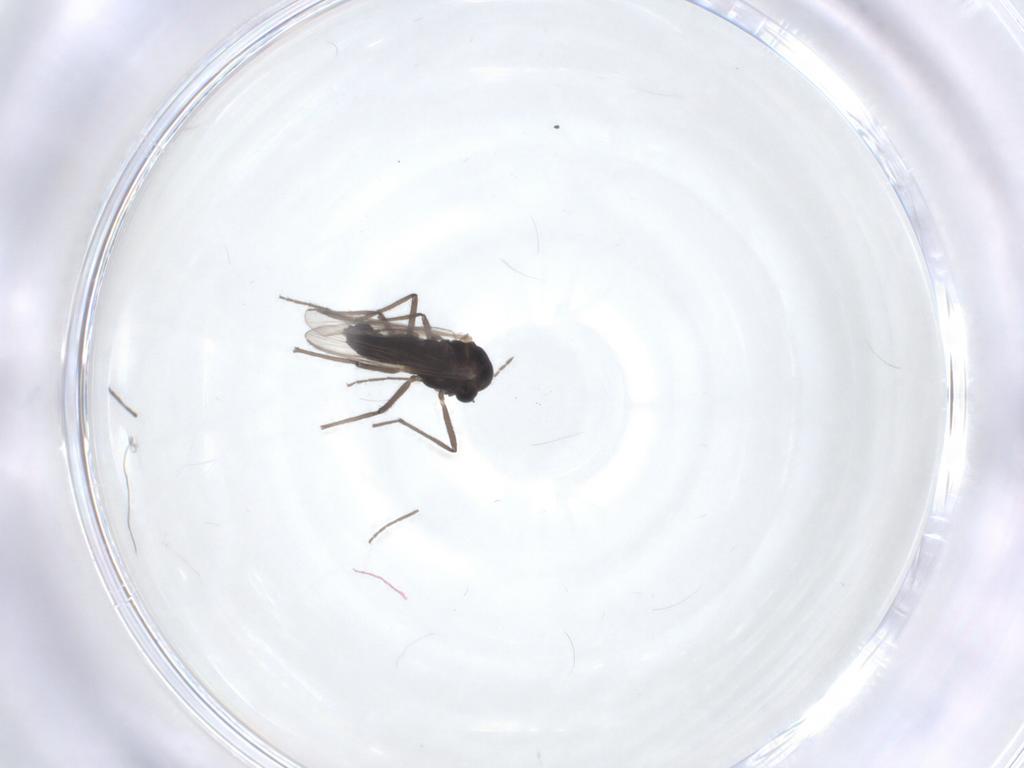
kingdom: Animalia
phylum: Arthropoda
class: Insecta
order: Diptera
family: Chironomidae
